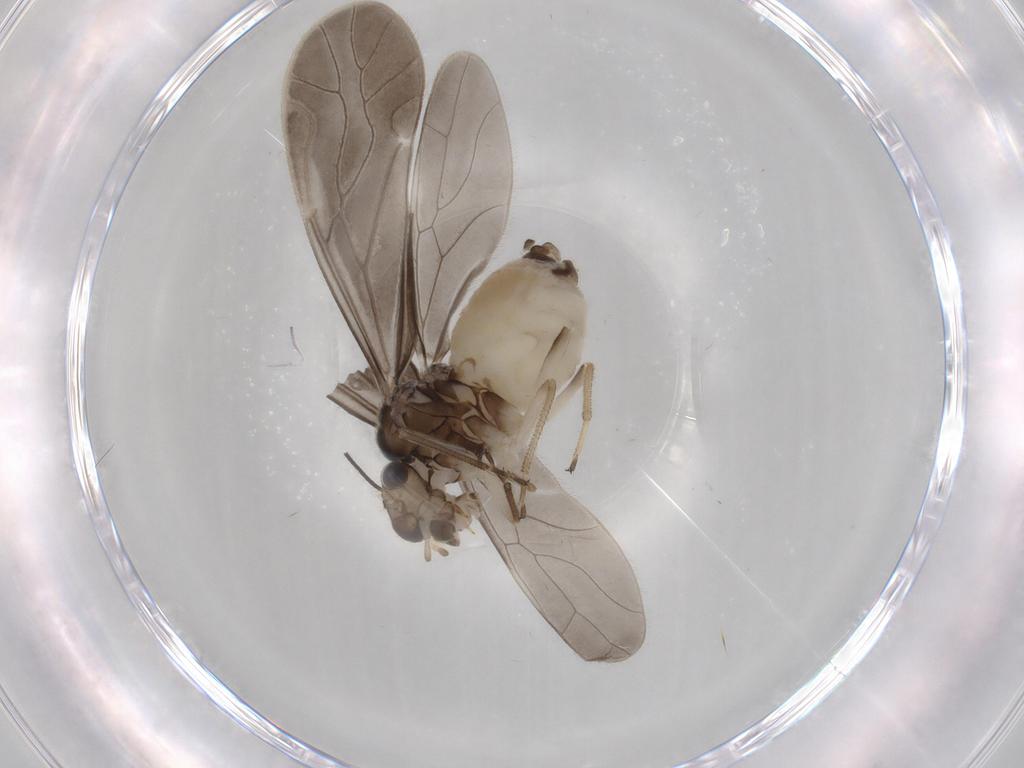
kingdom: Animalia
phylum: Arthropoda
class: Insecta
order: Psocodea
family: Caeciliusidae
